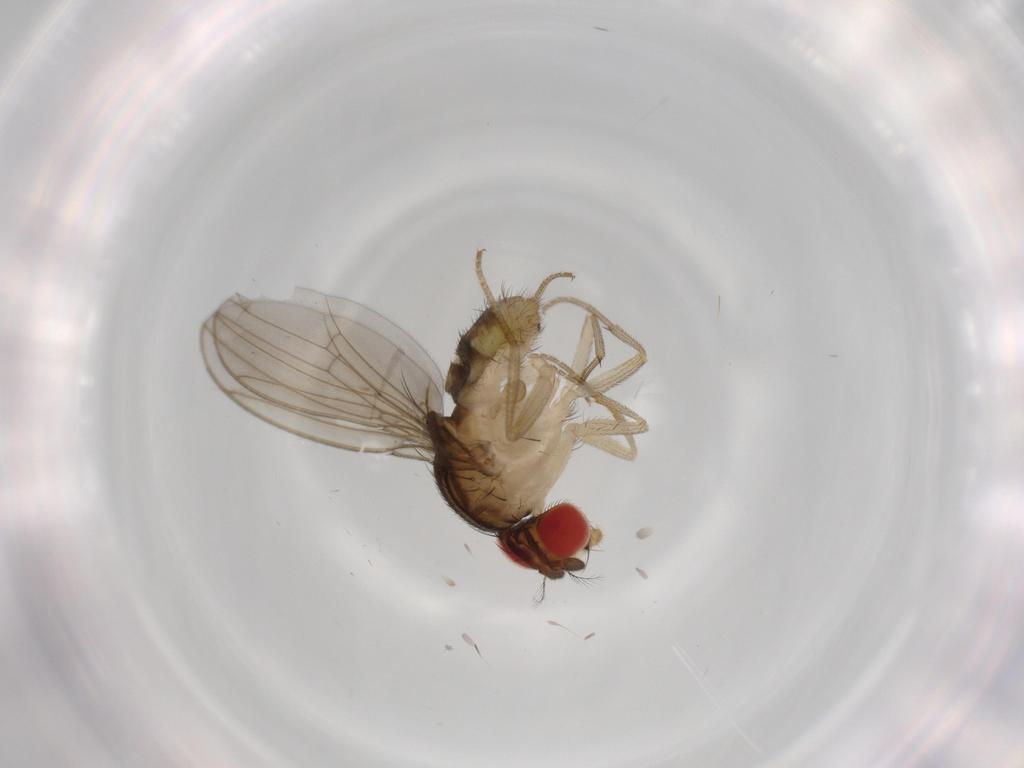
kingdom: Animalia
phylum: Arthropoda
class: Insecta
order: Diptera
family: Drosophilidae
